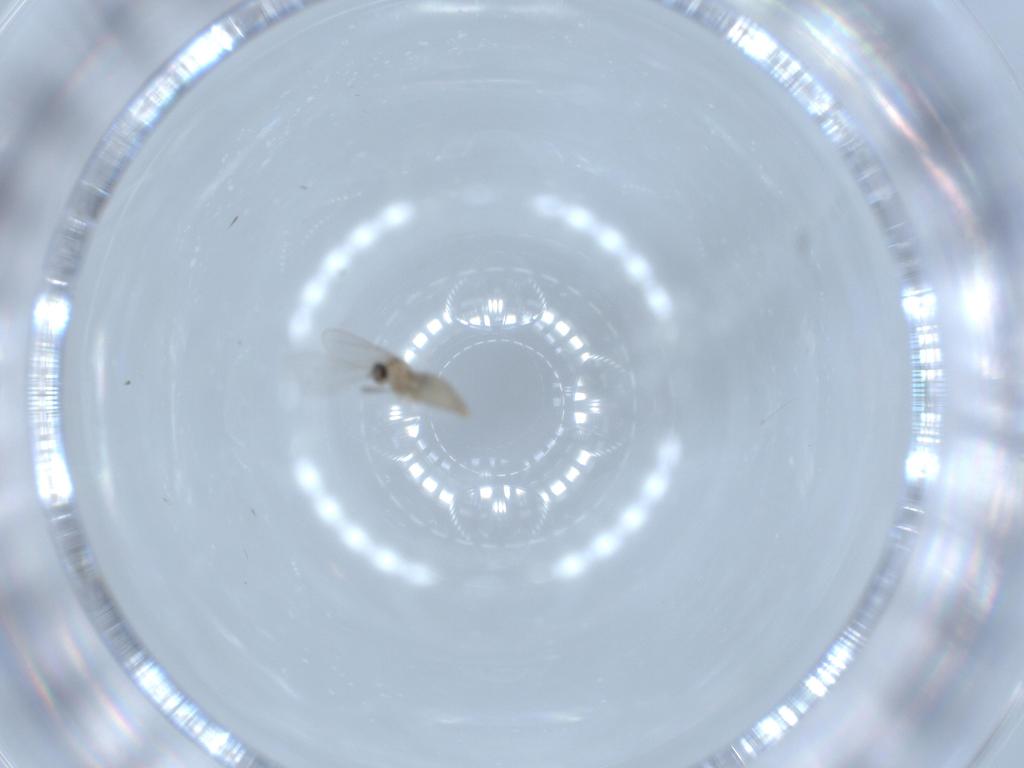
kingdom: Animalia
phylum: Arthropoda
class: Insecta
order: Diptera
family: Cecidomyiidae
